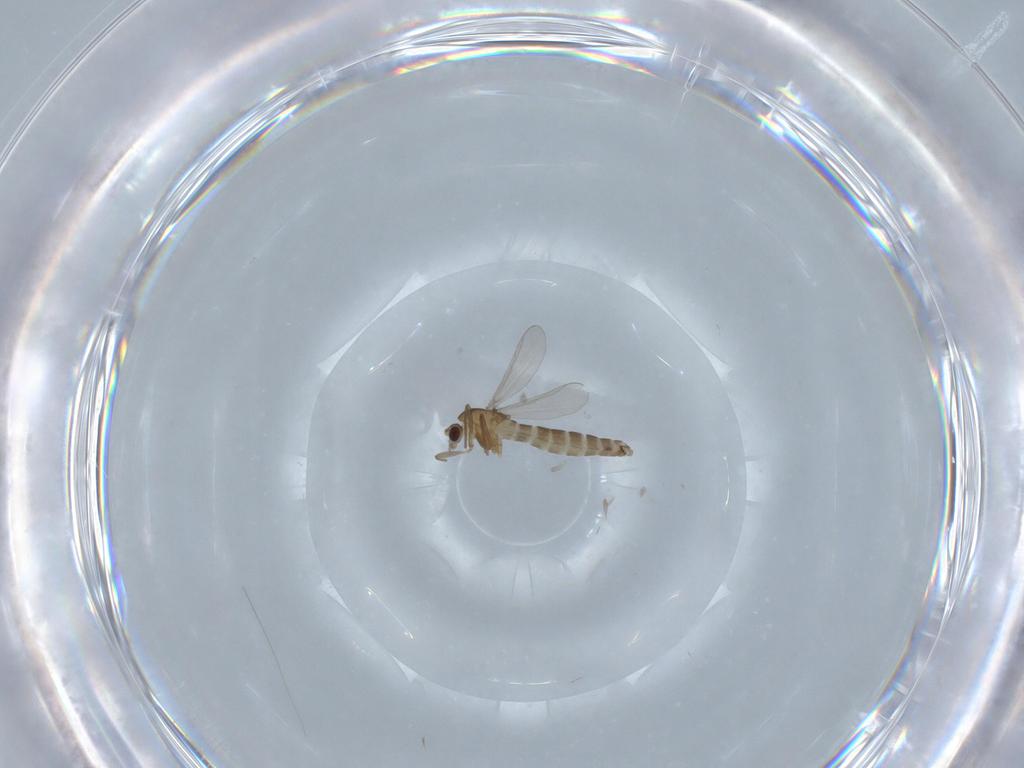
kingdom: Animalia
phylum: Arthropoda
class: Insecta
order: Diptera
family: Chironomidae
